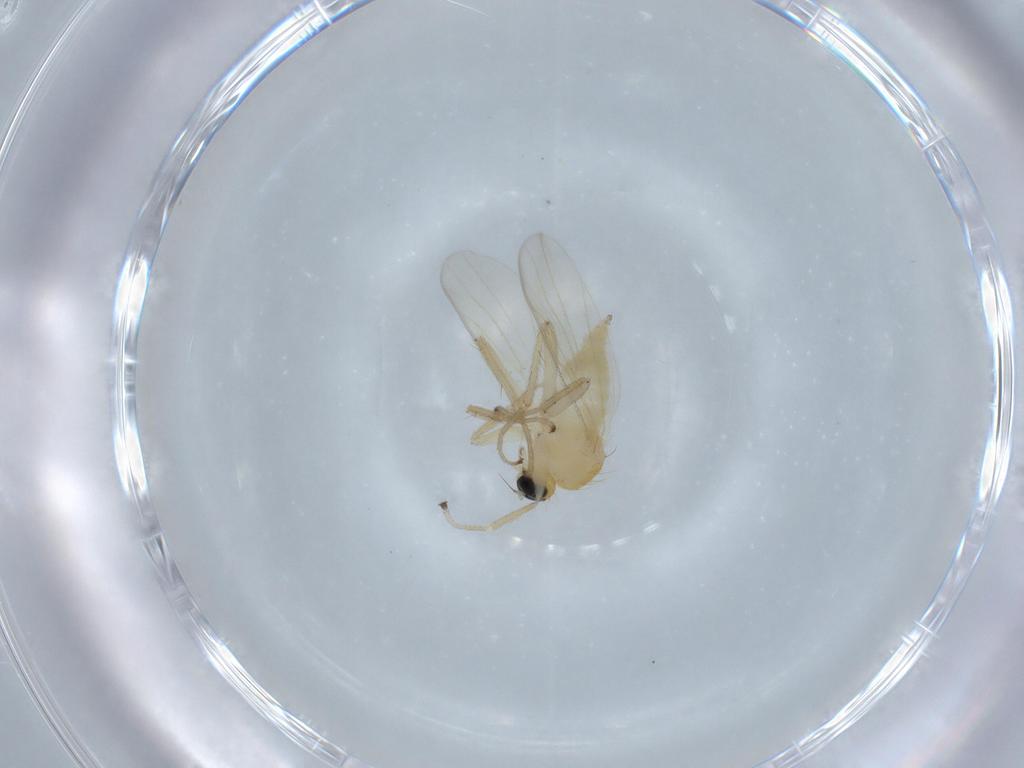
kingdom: Animalia
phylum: Arthropoda
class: Insecta
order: Diptera
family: Hybotidae
